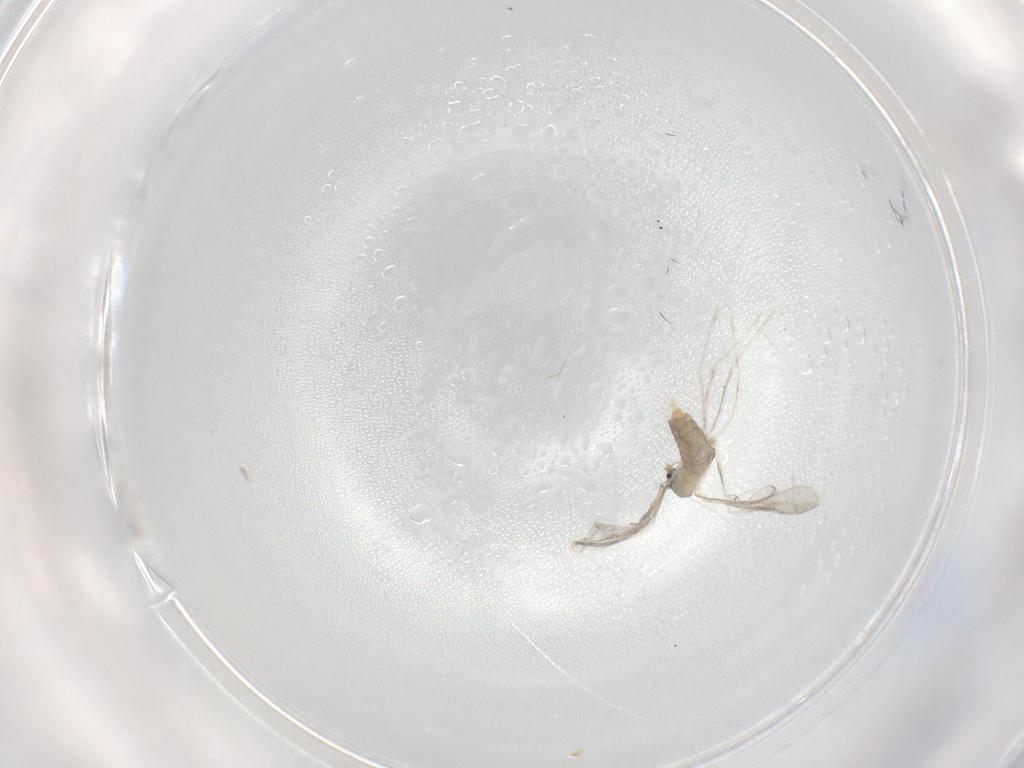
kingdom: Animalia
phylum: Arthropoda
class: Insecta
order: Diptera
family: Cecidomyiidae
